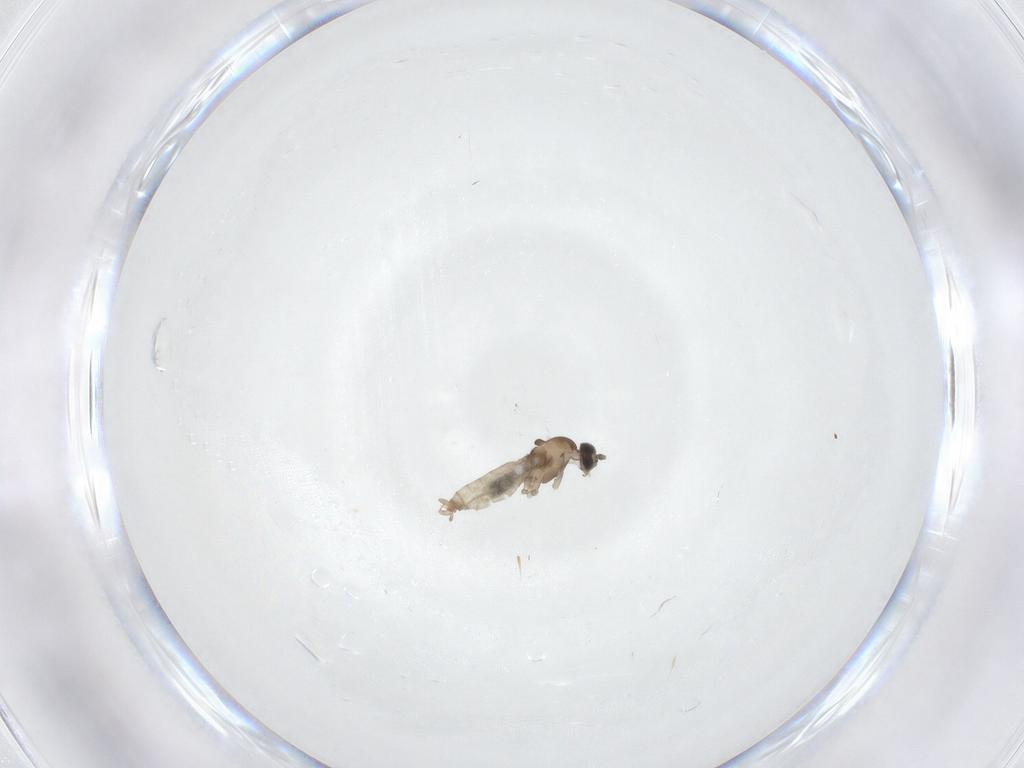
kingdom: Animalia
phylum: Arthropoda
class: Insecta
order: Diptera
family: Cecidomyiidae
